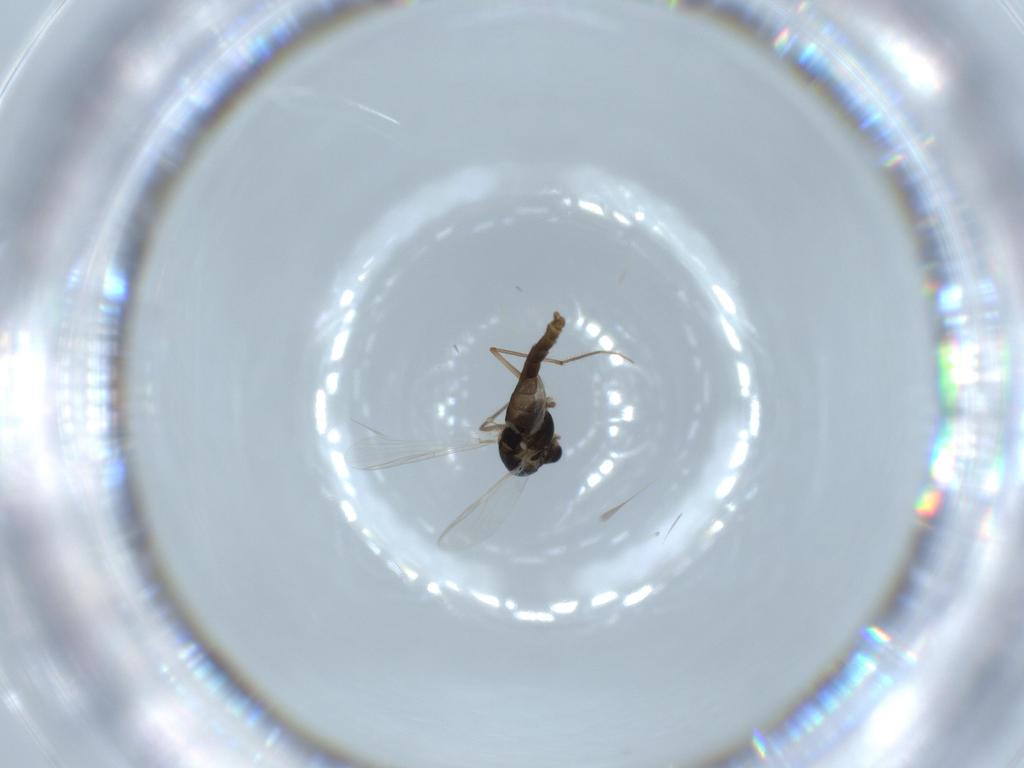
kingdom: Animalia
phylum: Arthropoda
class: Insecta
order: Diptera
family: Chironomidae
